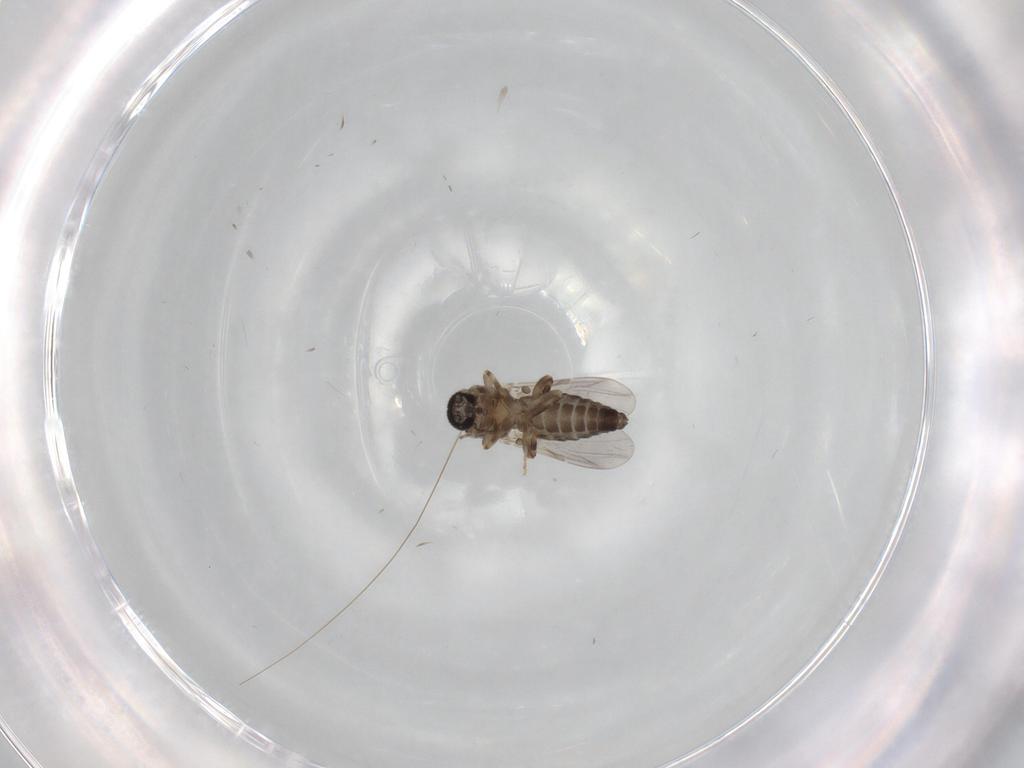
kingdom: Animalia
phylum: Arthropoda
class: Insecta
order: Diptera
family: Ceratopogonidae
